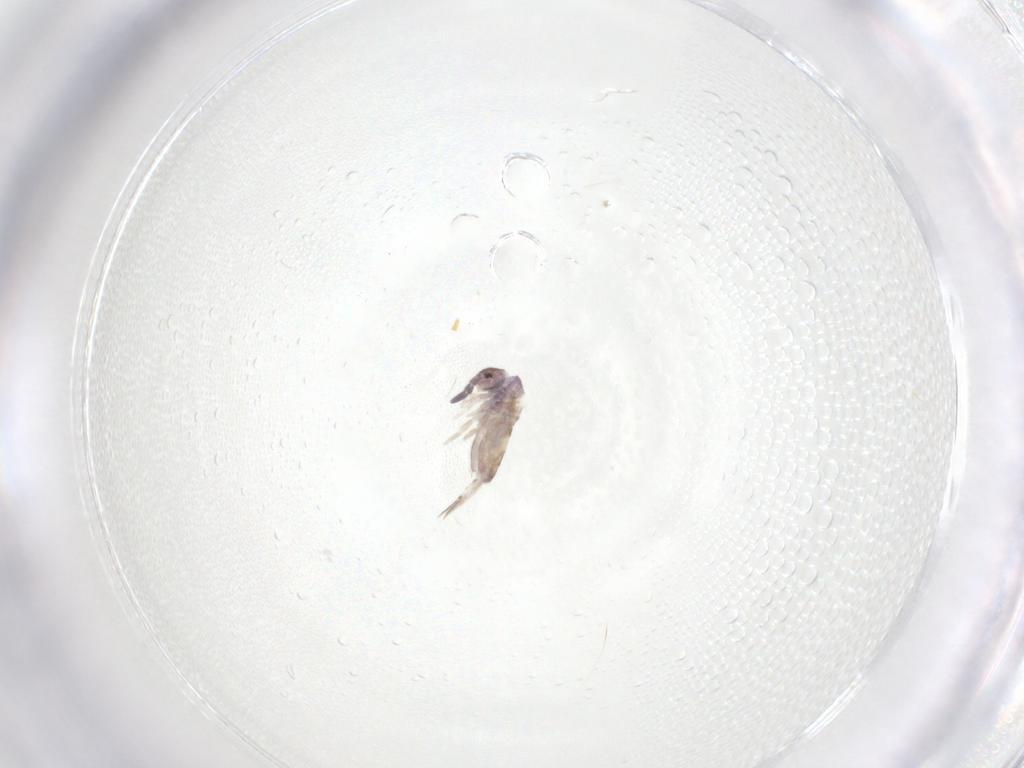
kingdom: Animalia
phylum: Arthropoda
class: Collembola
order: Entomobryomorpha
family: Entomobryidae
